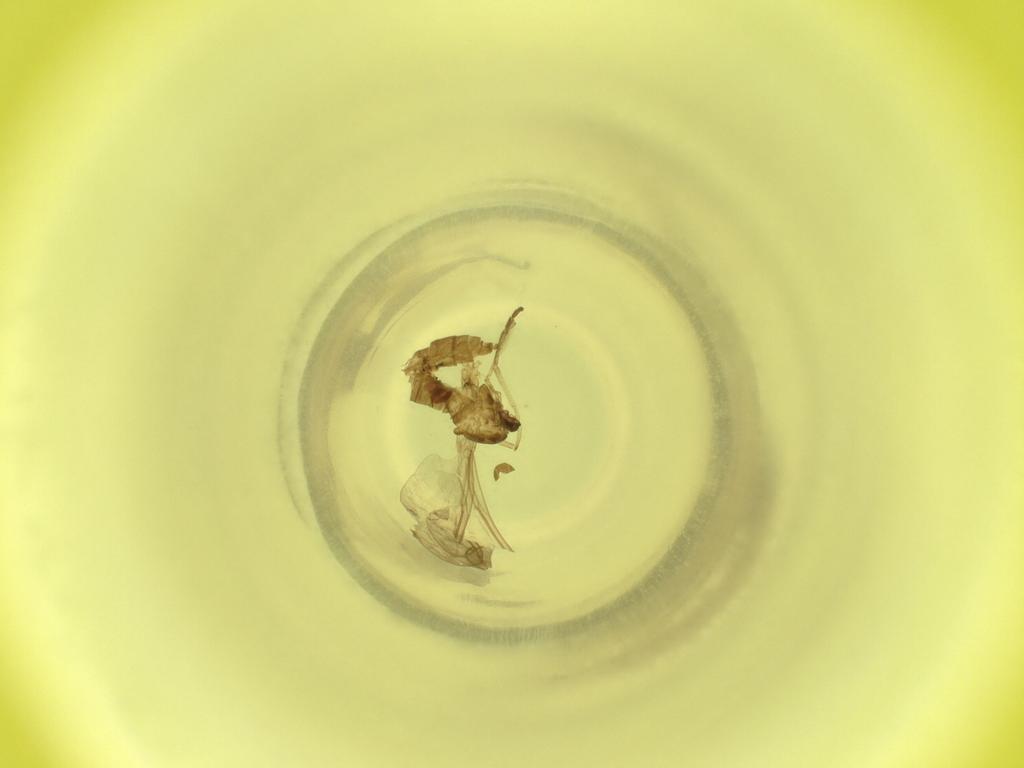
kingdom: Animalia
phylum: Arthropoda
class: Insecta
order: Diptera
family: Cecidomyiidae
